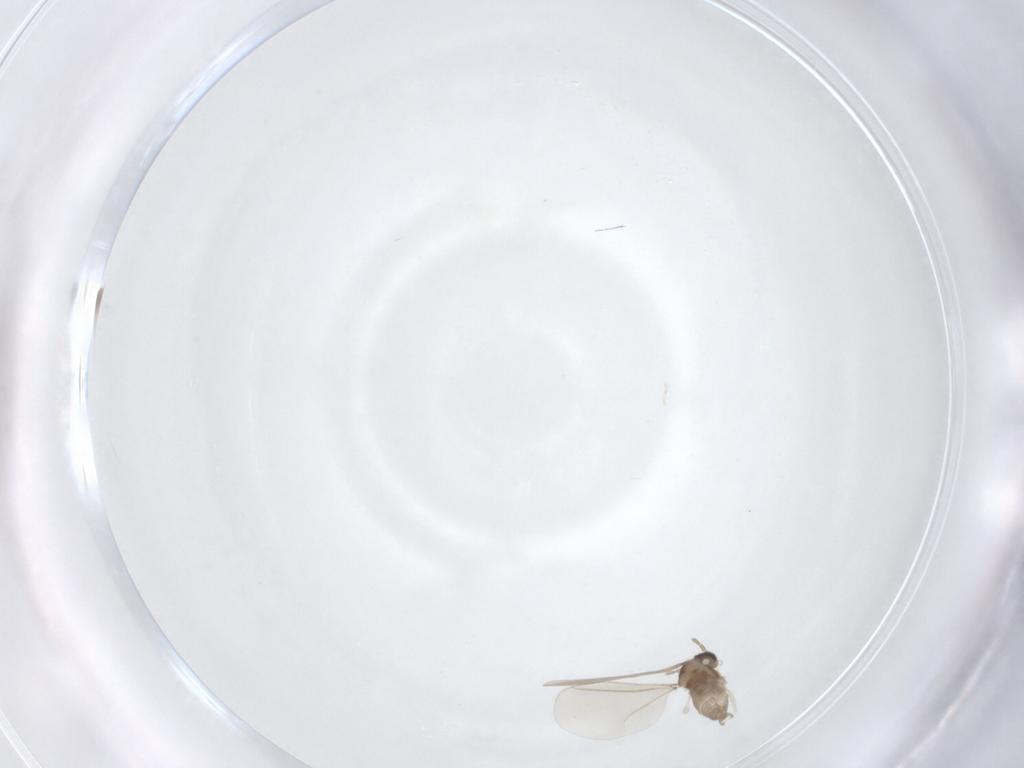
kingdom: Animalia
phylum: Arthropoda
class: Insecta
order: Diptera
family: Cecidomyiidae
